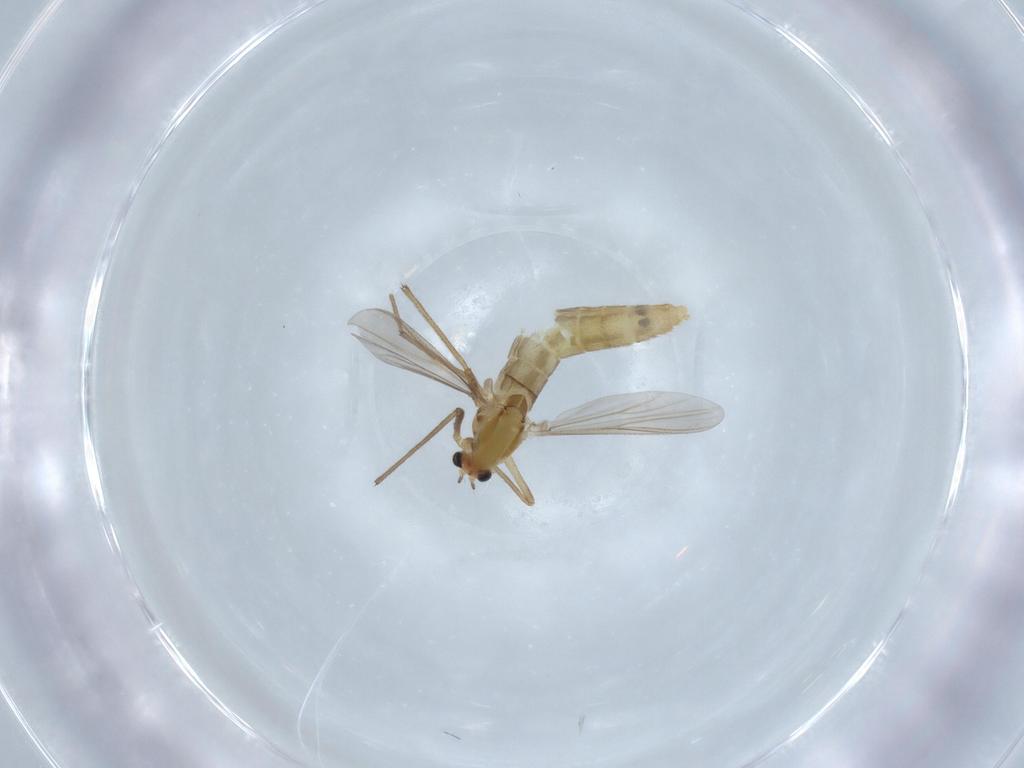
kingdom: Animalia
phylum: Arthropoda
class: Insecta
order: Diptera
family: Chironomidae
